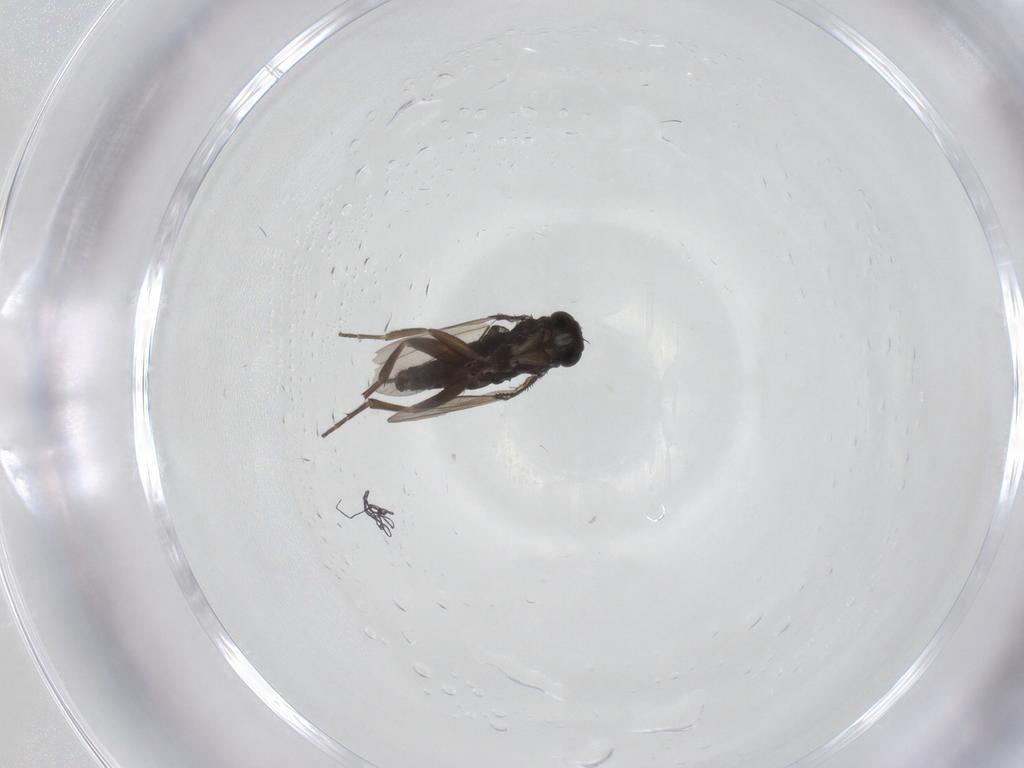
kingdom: Animalia
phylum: Arthropoda
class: Insecta
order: Diptera
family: Phoridae
